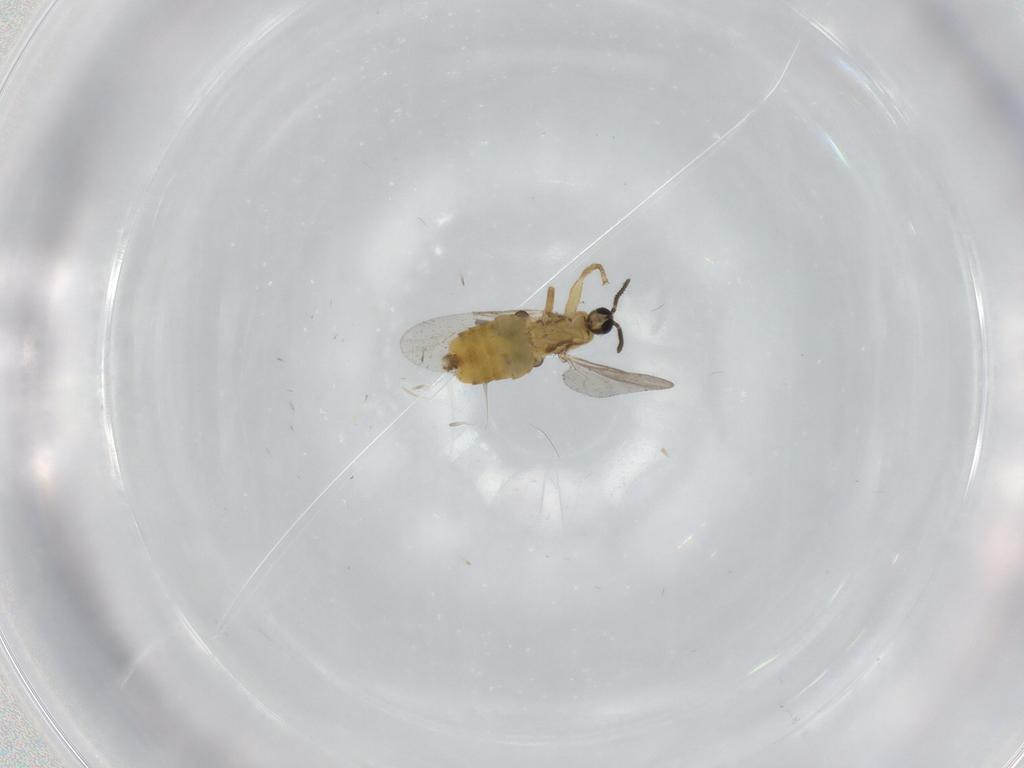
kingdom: Animalia
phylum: Arthropoda
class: Insecta
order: Diptera
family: Scatopsidae
